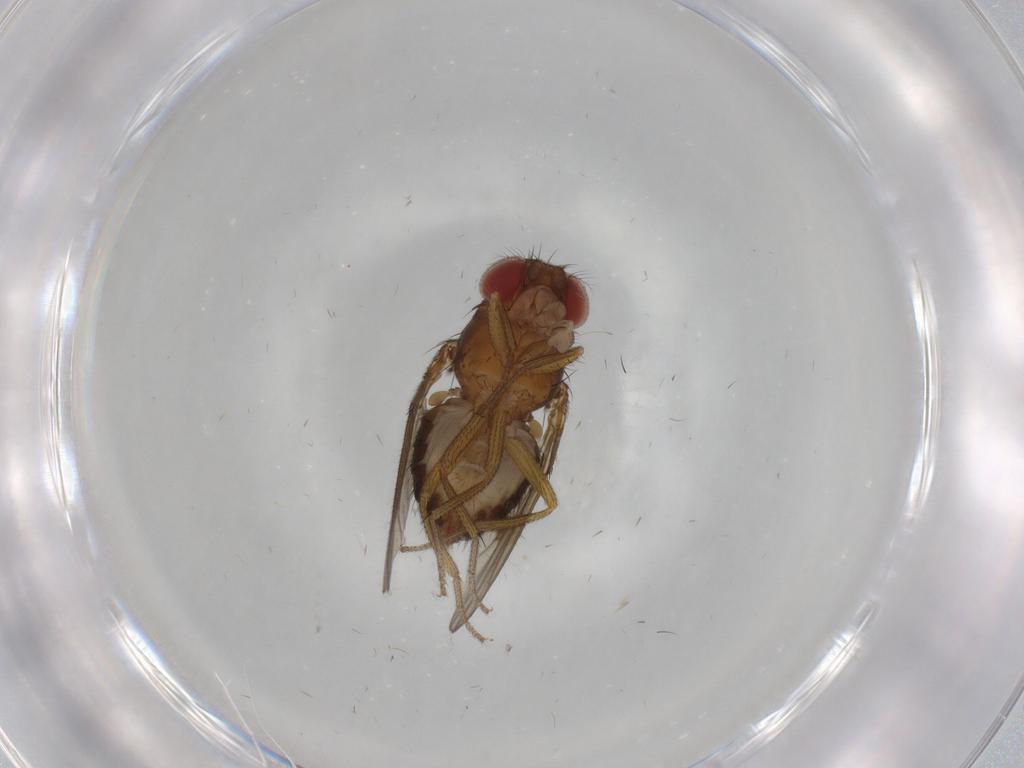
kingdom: Animalia
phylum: Arthropoda
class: Insecta
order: Diptera
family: Drosophilidae
